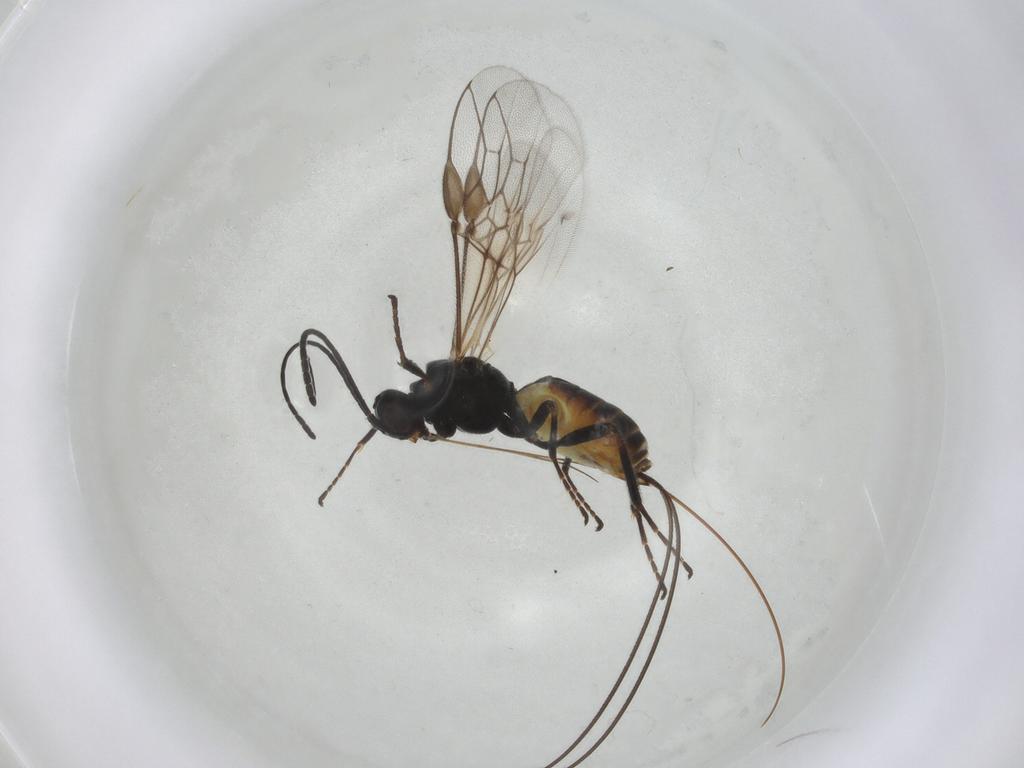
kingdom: Animalia
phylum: Arthropoda
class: Insecta
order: Hymenoptera
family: Braconidae
